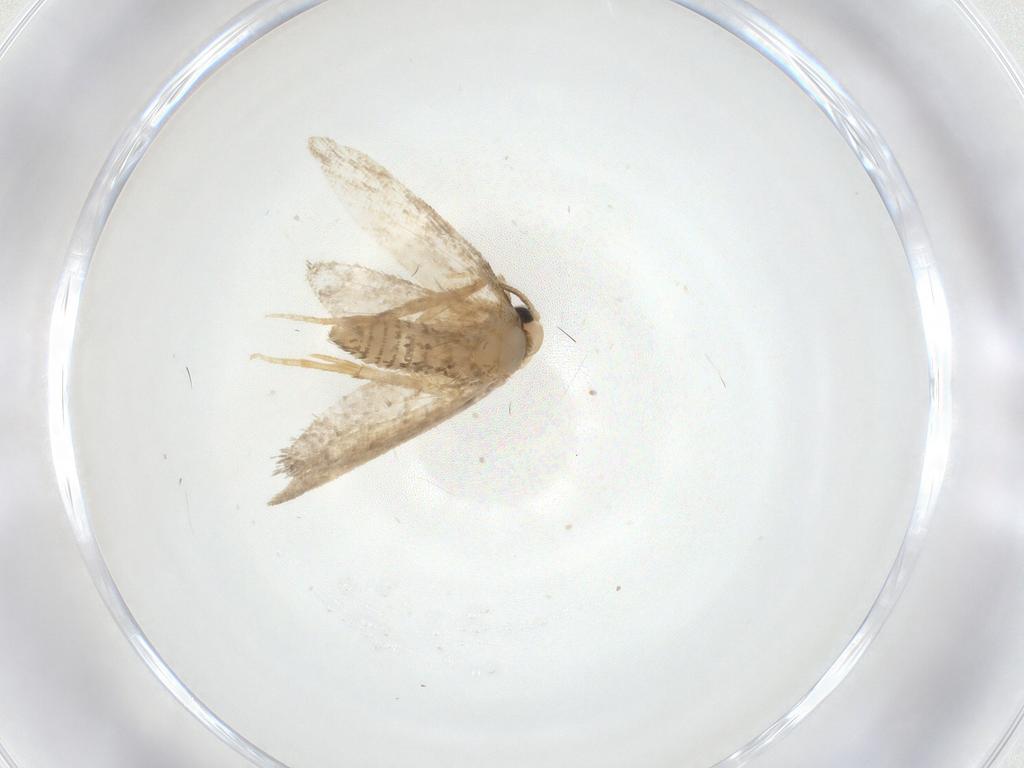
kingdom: Animalia
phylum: Arthropoda
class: Insecta
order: Lepidoptera
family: Psychidae
